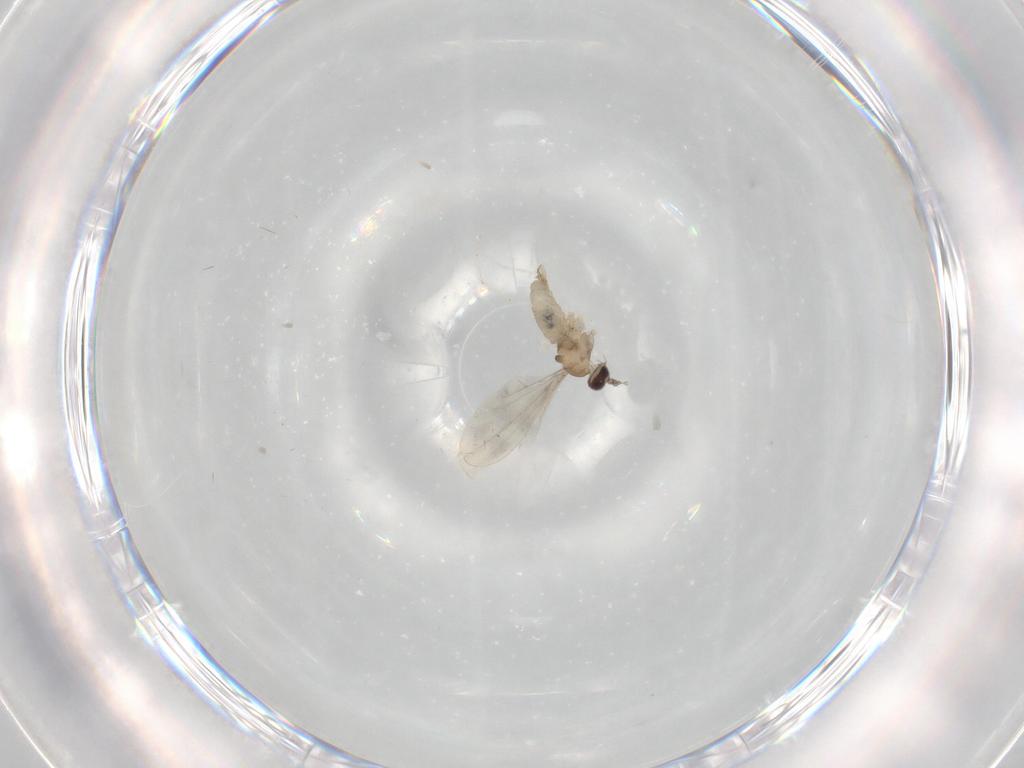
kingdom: Animalia
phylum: Arthropoda
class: Insecta
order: Diptera
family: Cecidomyiidae
